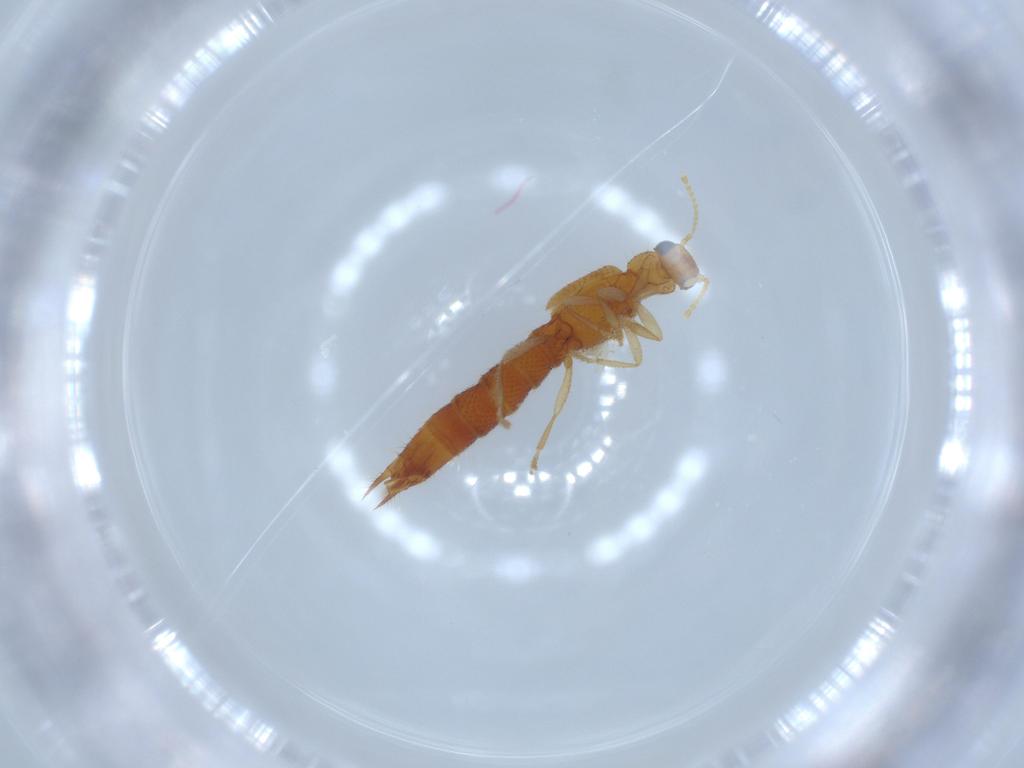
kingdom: Animalia
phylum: Arthropoda
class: Insecta
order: Coleoptera
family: Staphylinidae
